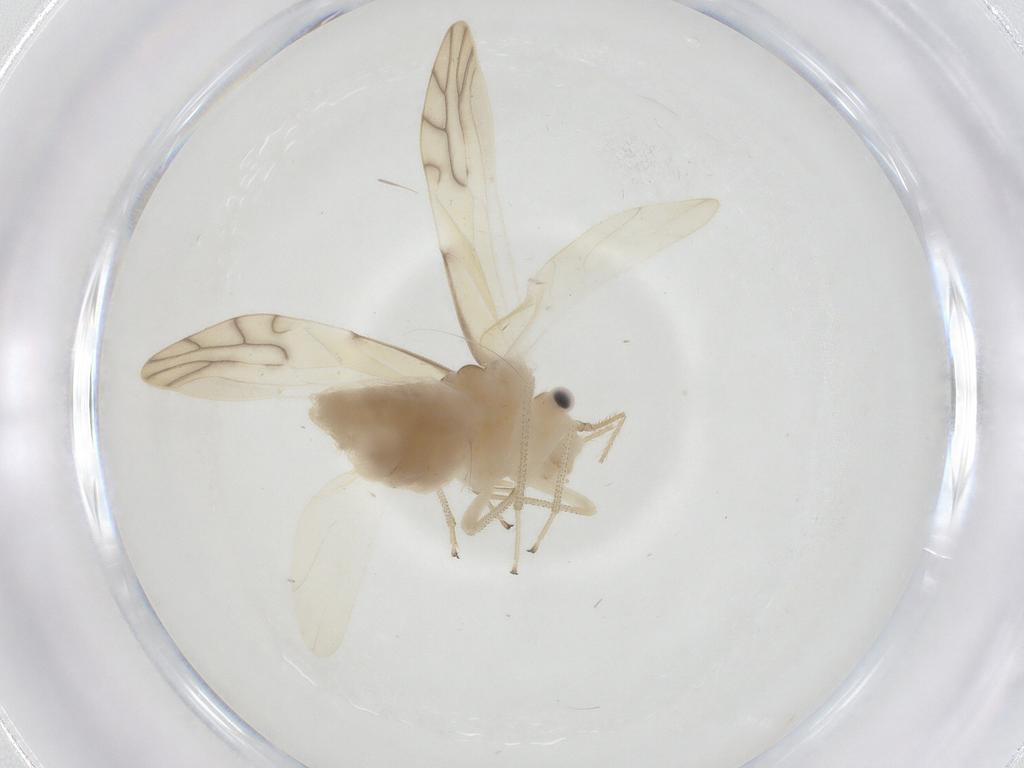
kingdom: Animalia
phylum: Arthropoda
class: Insecta
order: Psocodea
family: Caeciliusidae
